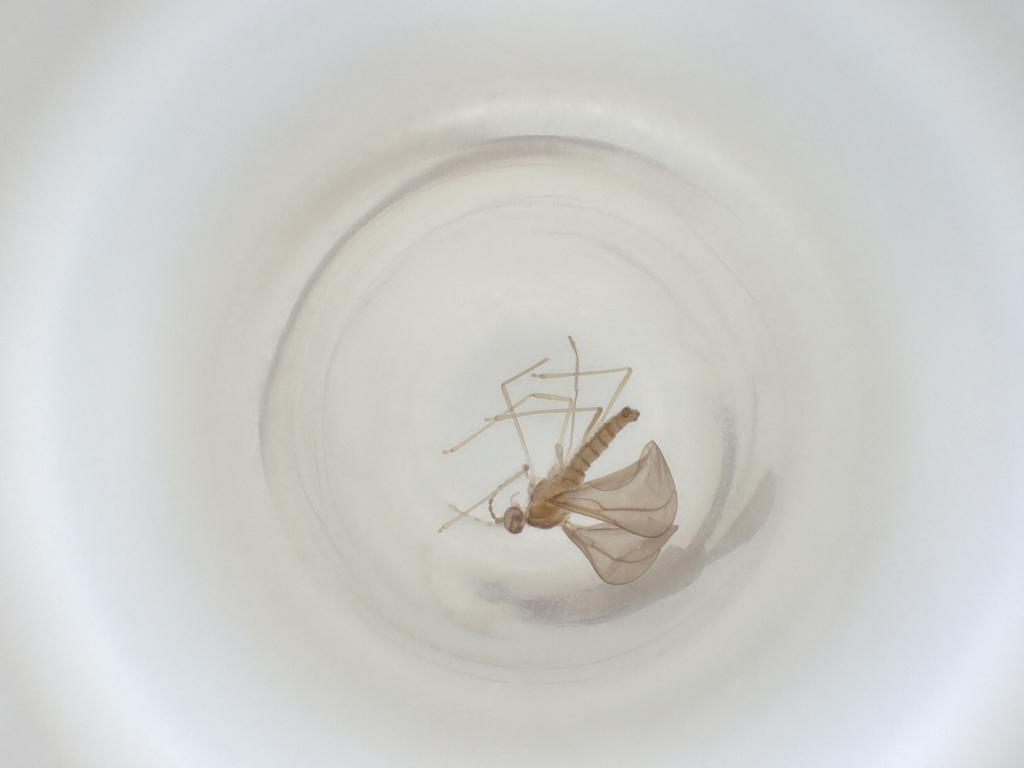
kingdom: Animalia
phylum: Arthropoda
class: Insecta
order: Diptera
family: Cecidomyiidae
